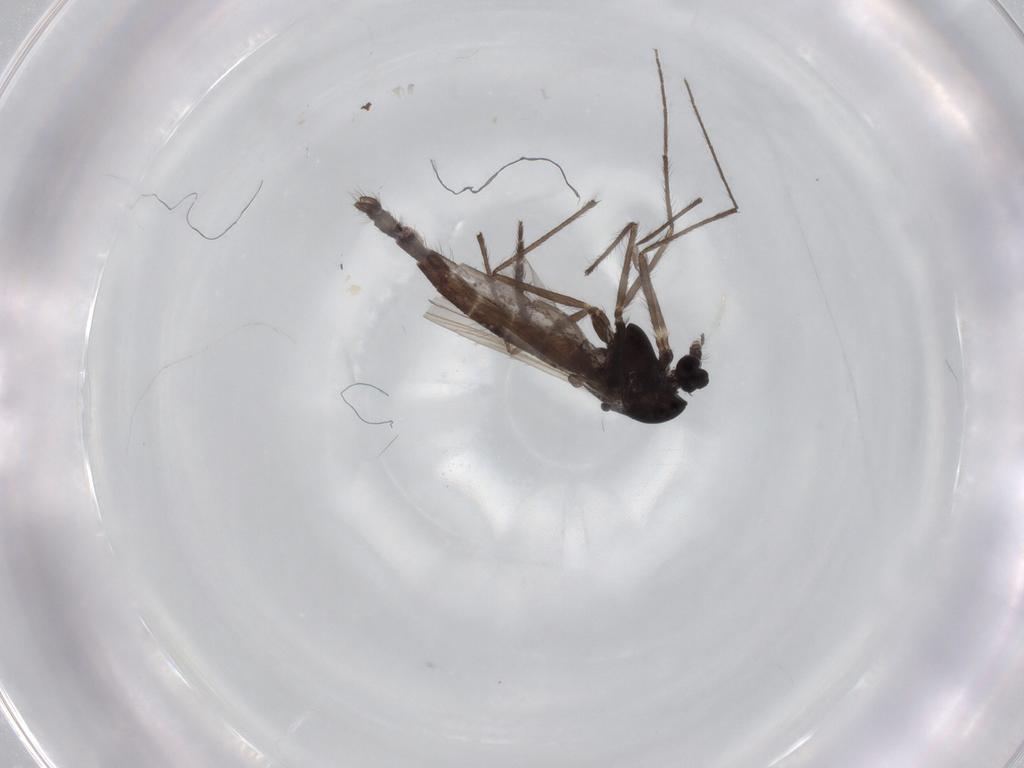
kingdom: Animalia
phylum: Arthropoda
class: Insecta
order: Diptera
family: Chironomidae
